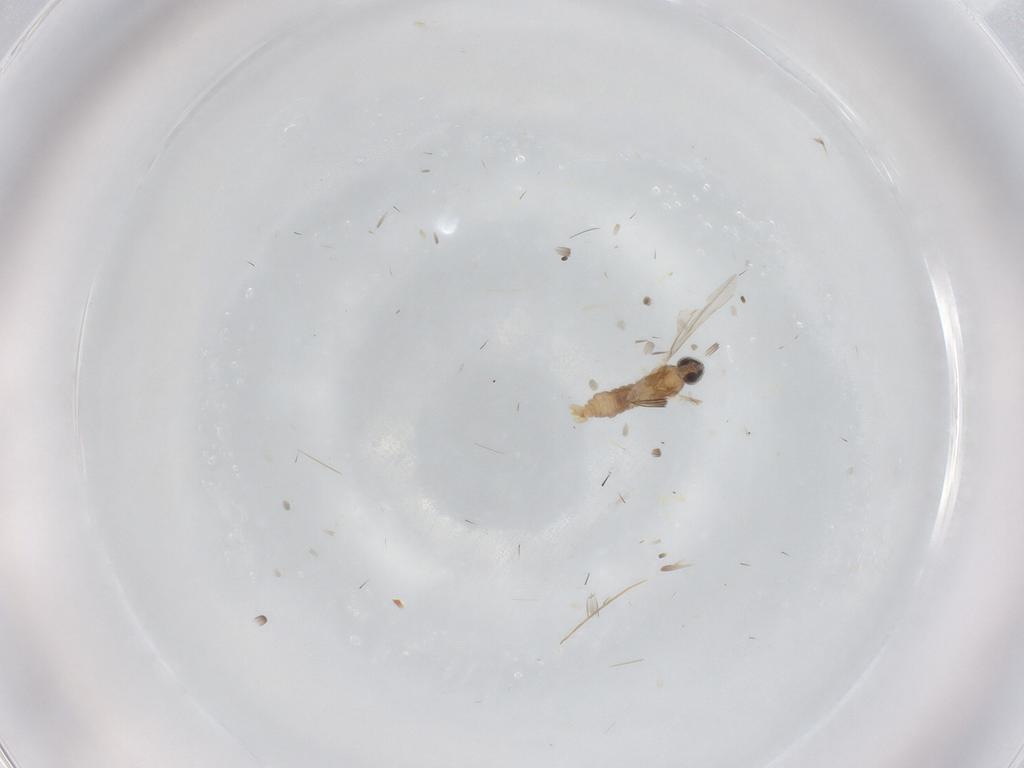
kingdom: Animalia
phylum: Arthropoda
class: Insecta
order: Diptera
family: Cecidomyiidae
